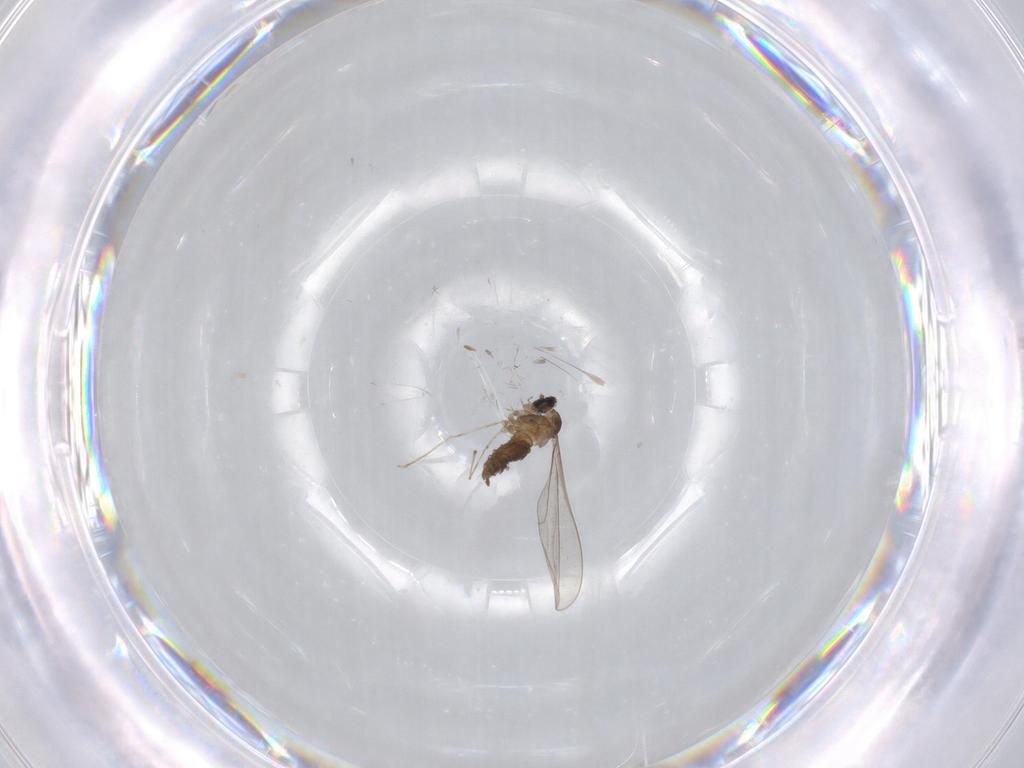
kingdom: Animalia
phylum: Arthropoda
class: Insecta
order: Diptera
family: Cecidomyiidae
